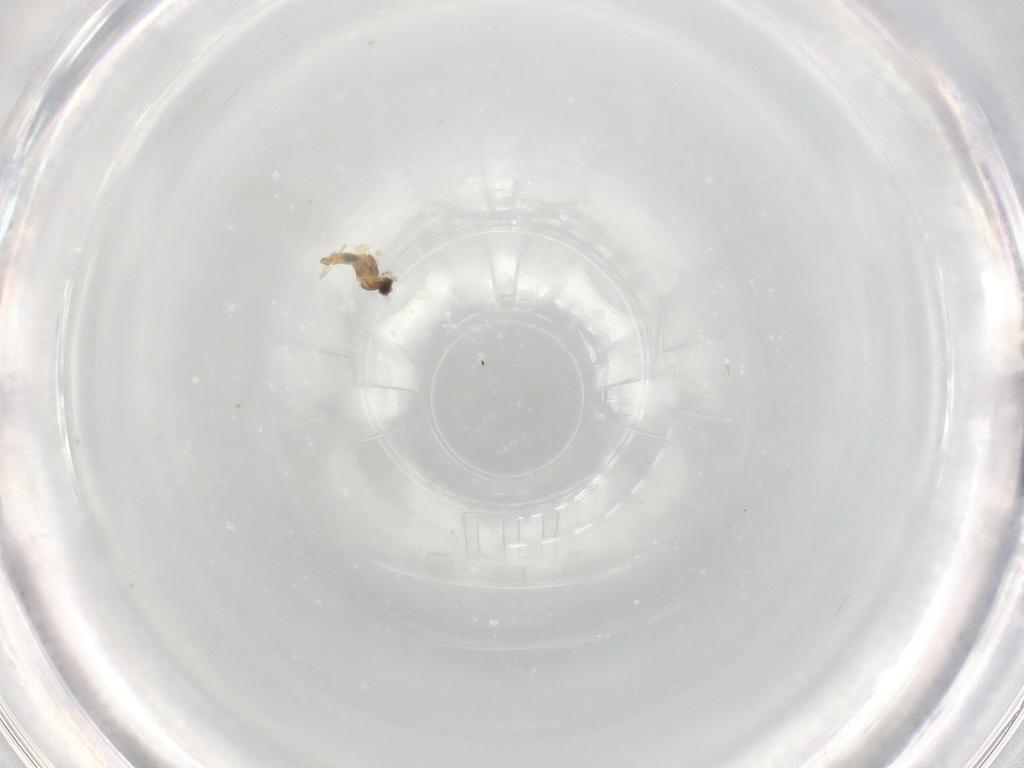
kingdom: Animalia
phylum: Arthropoda
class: Insecta
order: Diptera
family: Cecidomyiidae
